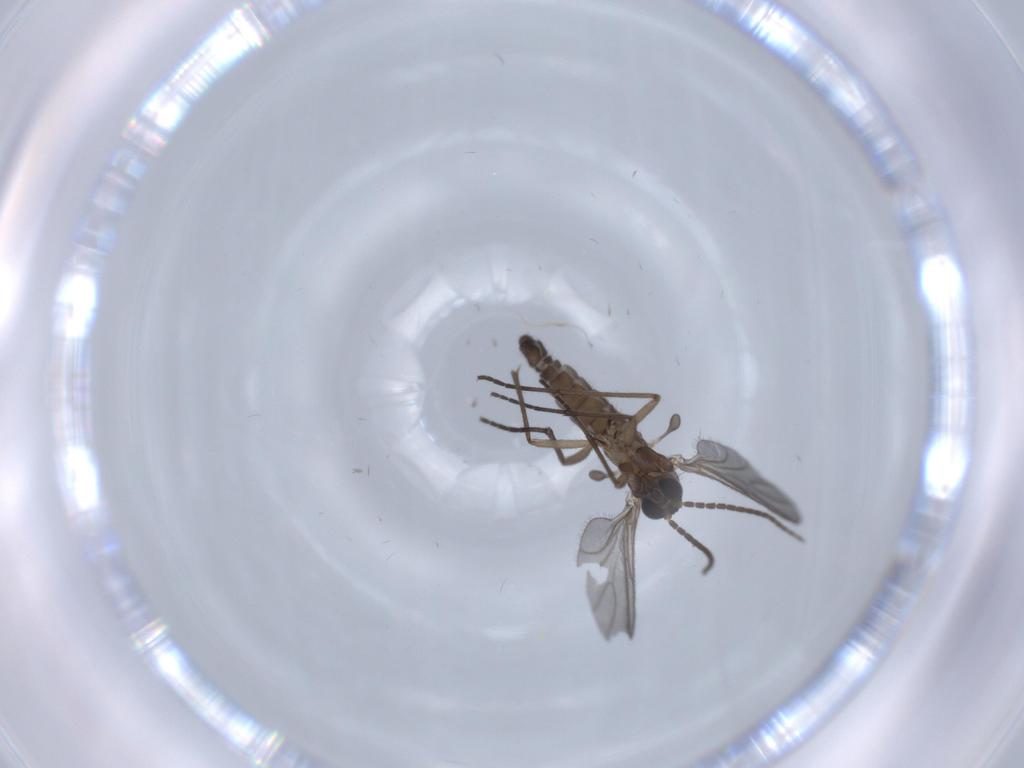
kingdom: Animalia
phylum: Arthropoda
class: Insecta
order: Diptera
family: Sciaridae
